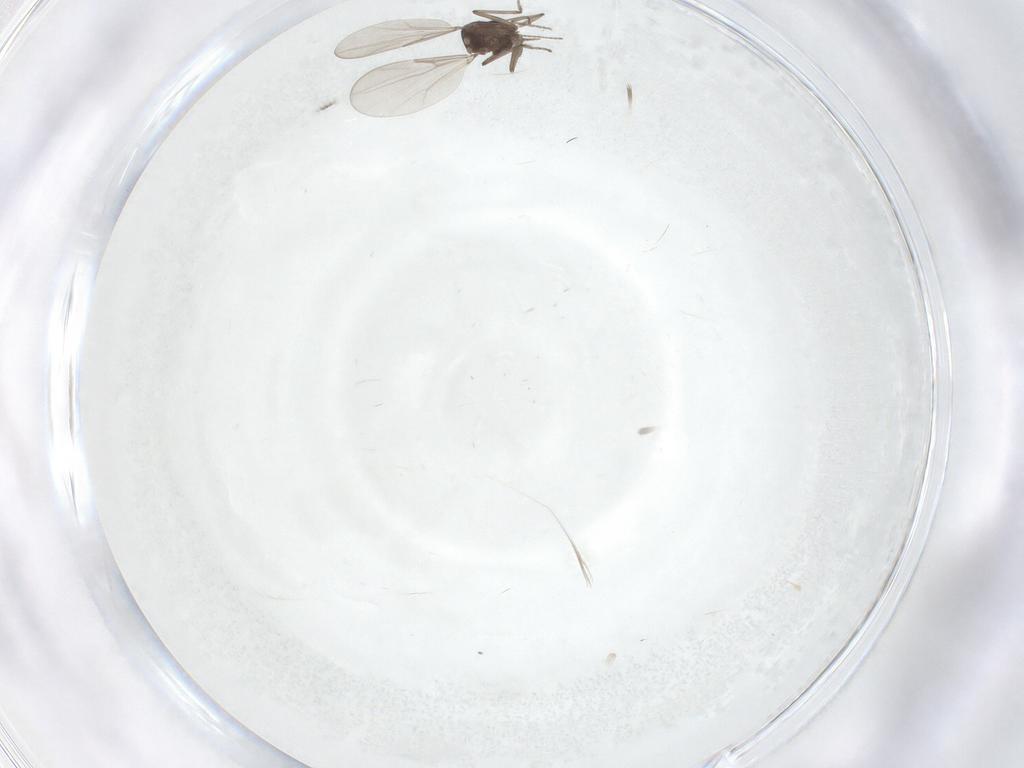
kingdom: Animalia
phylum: Arthropoda
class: Insecta
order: Diptera
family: Ceratopogonidae
